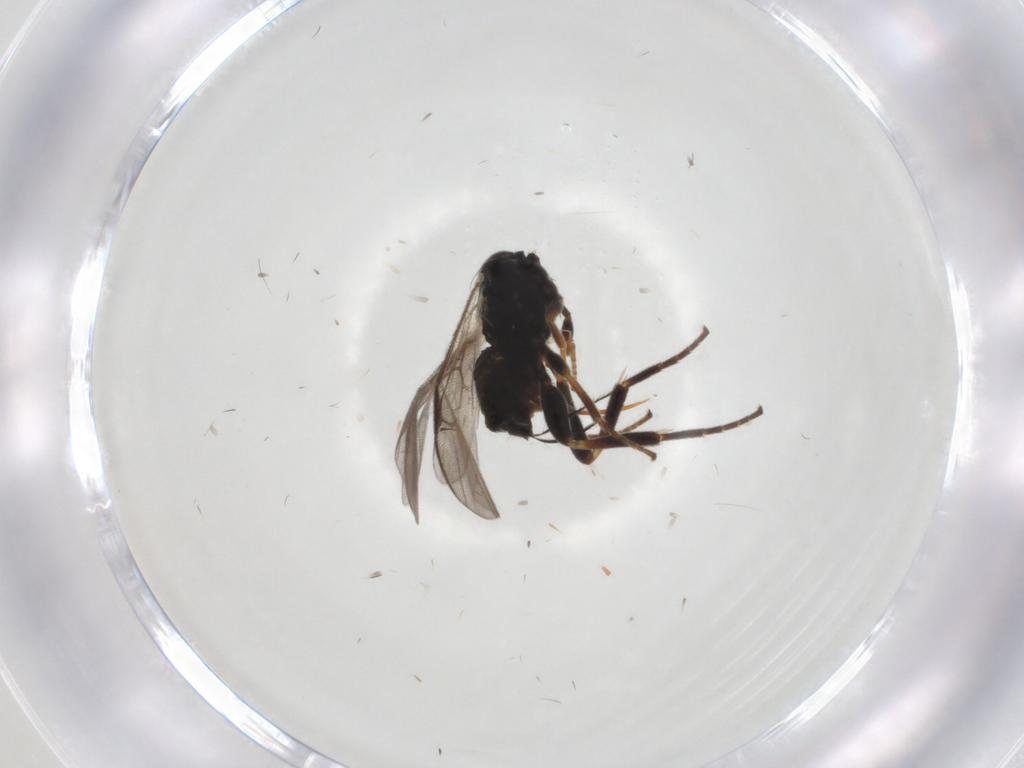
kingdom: Animalia
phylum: Arthropoda
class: Insecta
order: Hymenoptera
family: Braconidae
